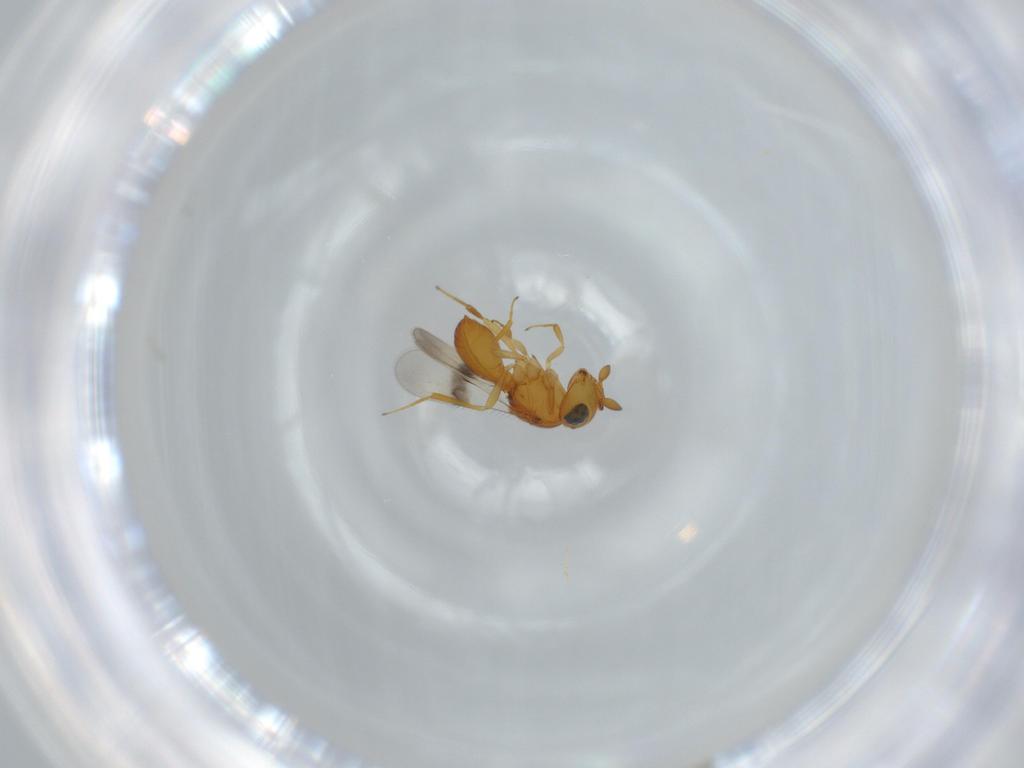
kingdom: Animalia
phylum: Arthropoda
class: Insecta
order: Hymenoptera
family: Scelionidae
